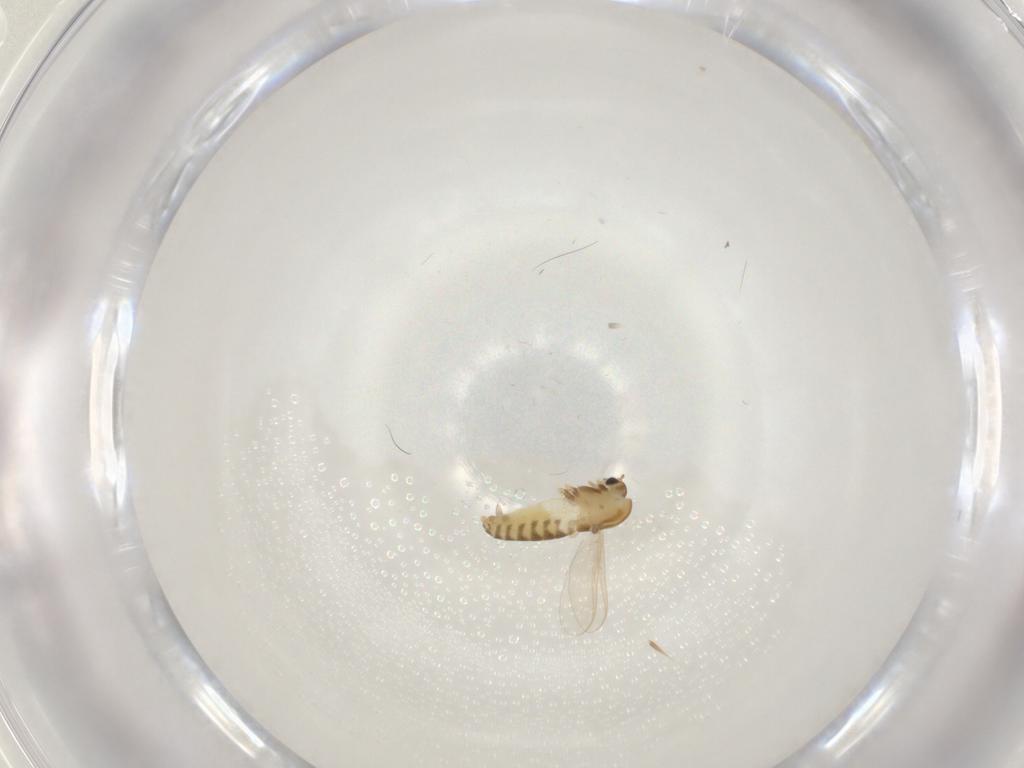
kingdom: Animalia
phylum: Arthropoda
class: Insecta
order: Diptera
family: Chironomidae
